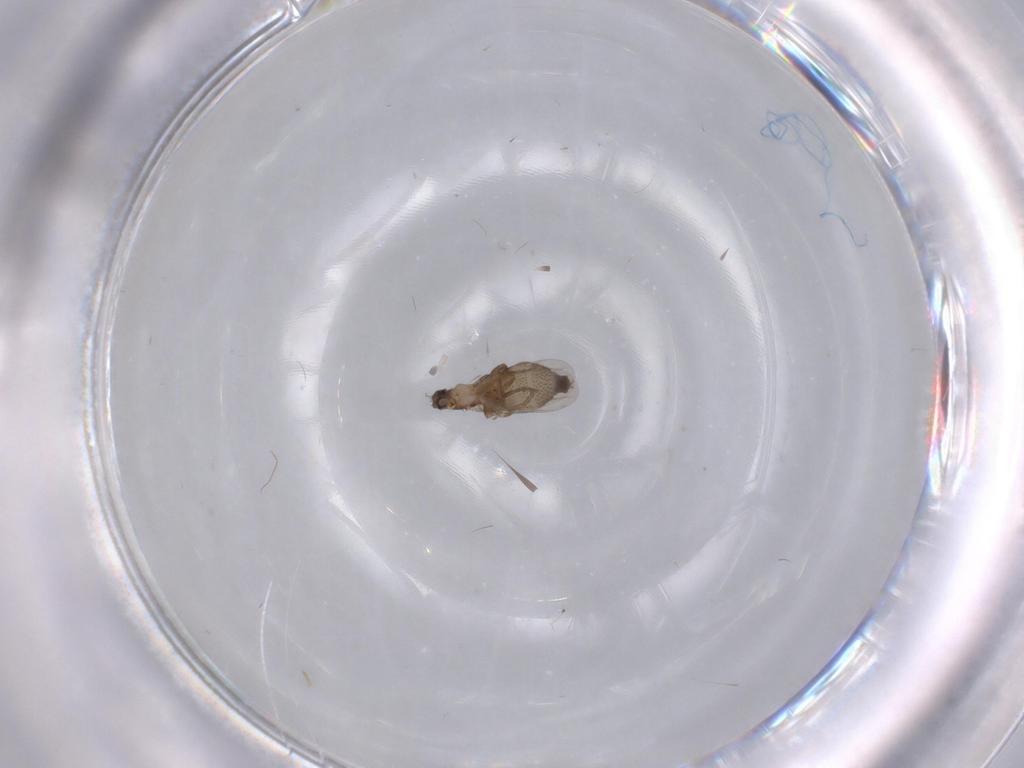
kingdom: Animalia
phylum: Arthropoda
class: Insecta
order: Diptera
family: Phoridae
